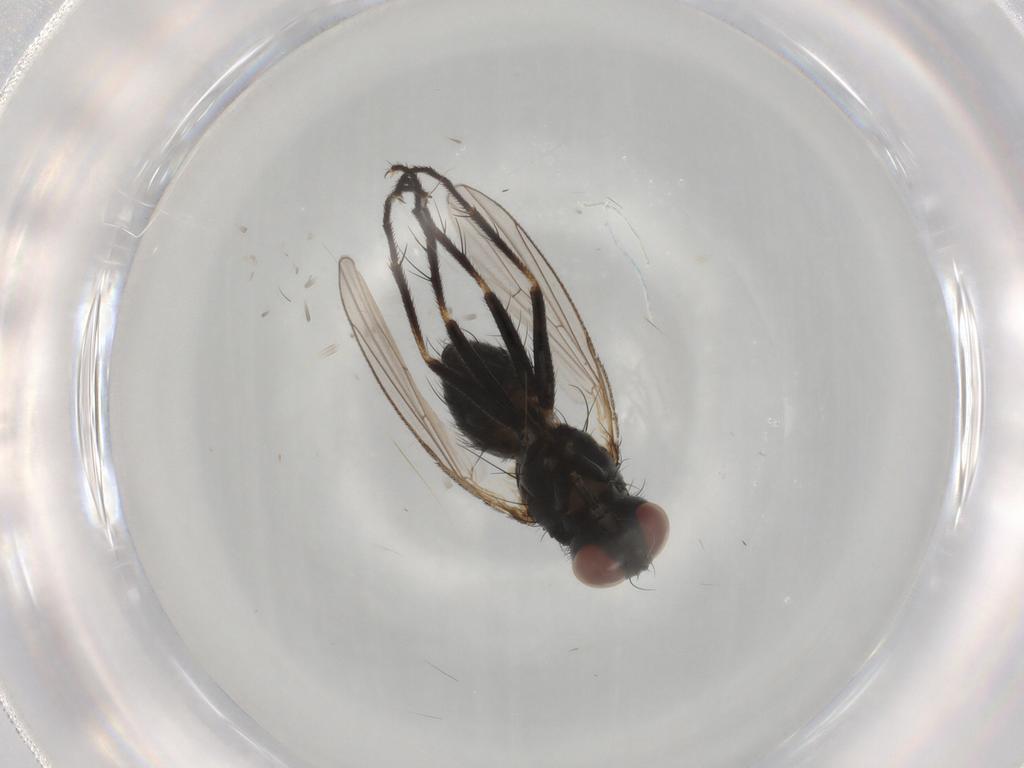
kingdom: Animalia
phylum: Arthropoda
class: Insecta
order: Diptera
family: Muscidae
